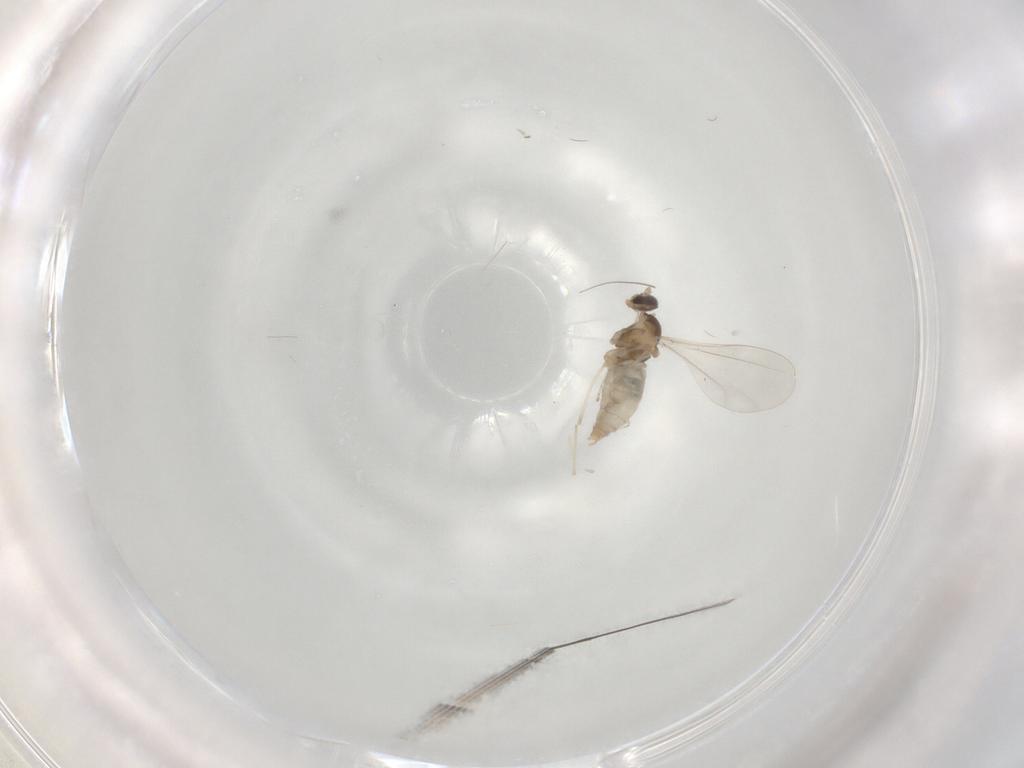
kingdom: Animalia
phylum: Arthropoda
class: Insecta
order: Diptera
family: Cecidomyiidae
